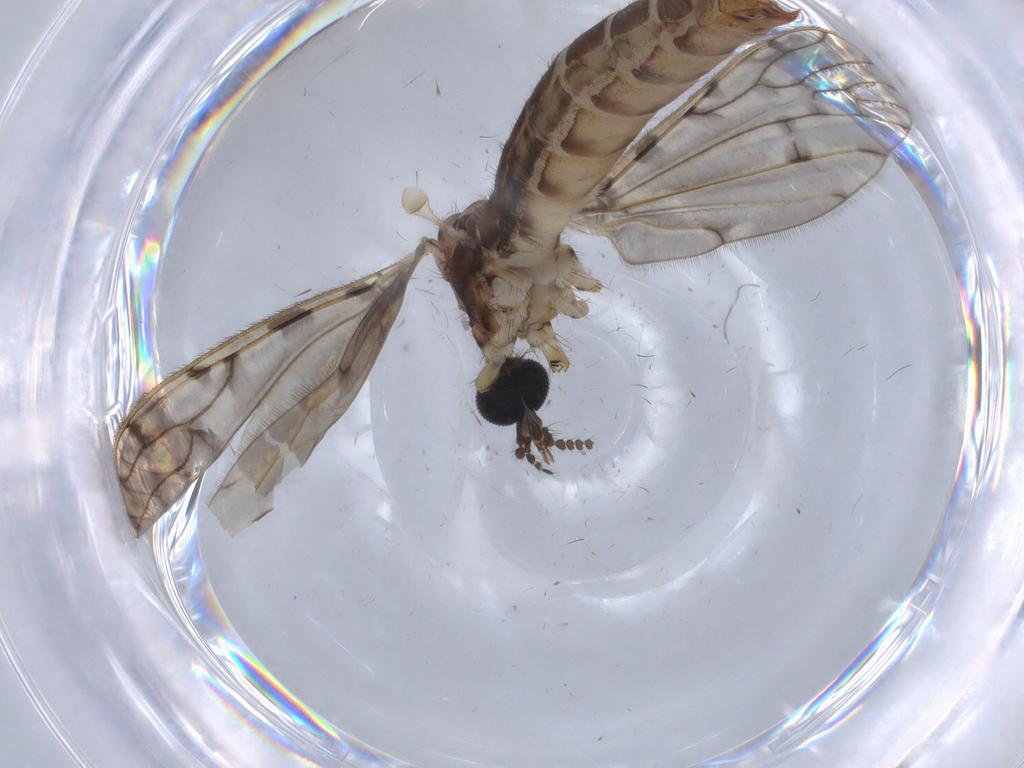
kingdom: Animalia
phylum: Arthropoda
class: Insecta
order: Diptera
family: Ceratopogonidae
